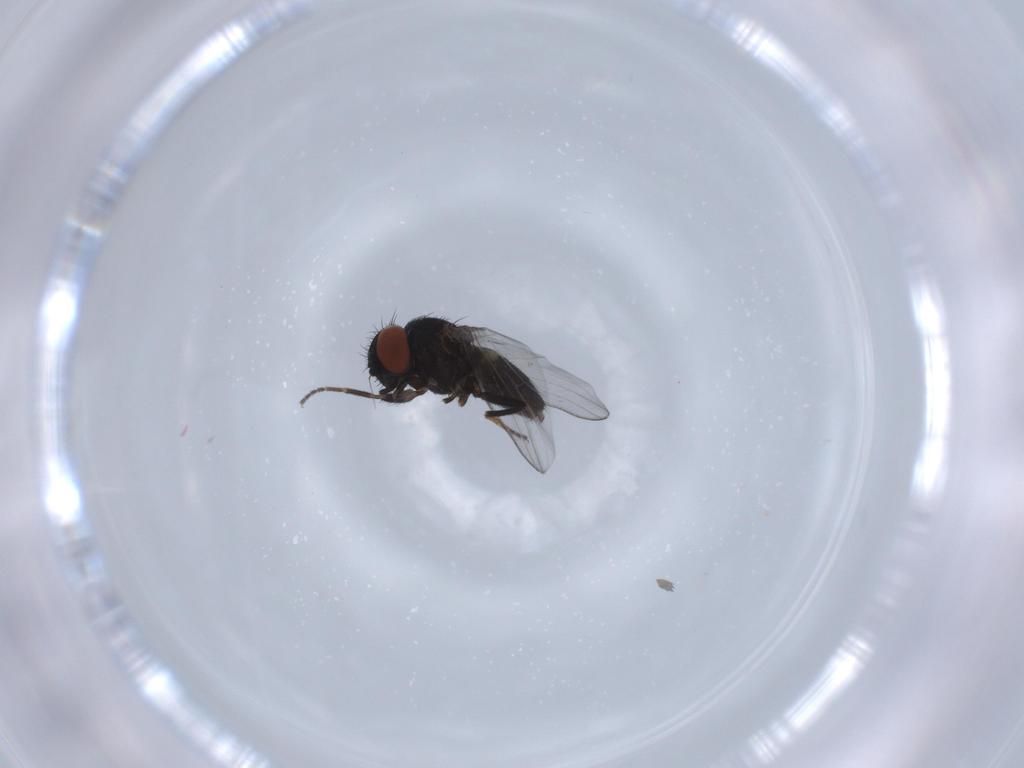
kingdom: Animalia
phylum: Arthropoda
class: Insecta
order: Diptera
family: Milichiidae
